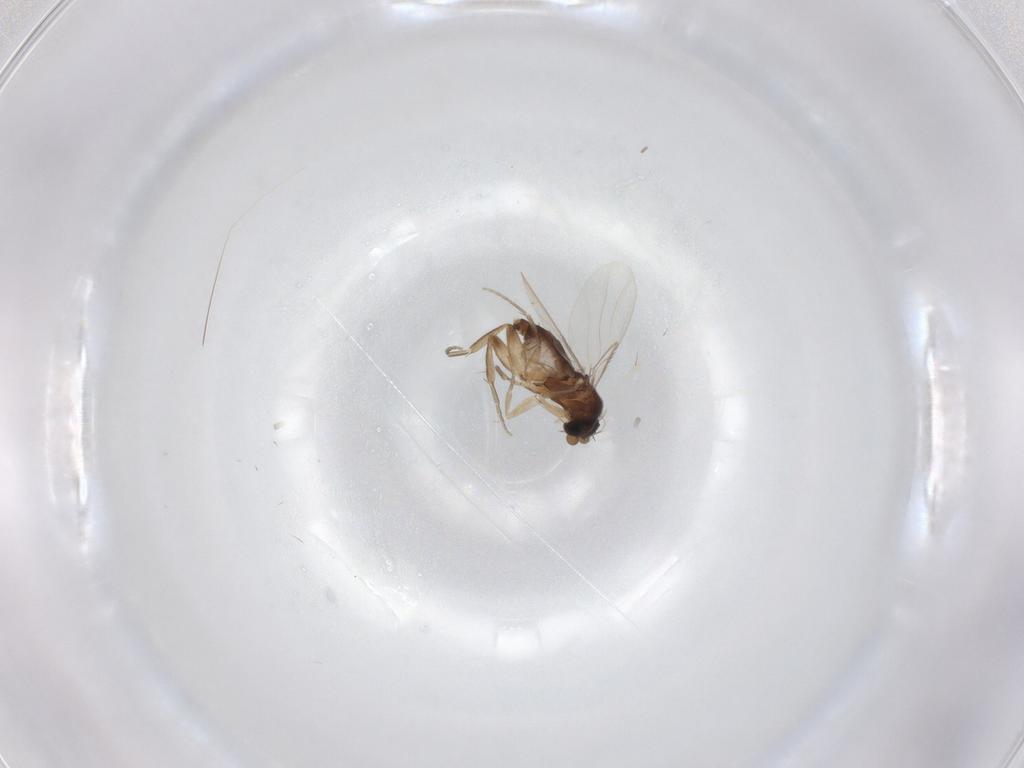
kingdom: Animalia
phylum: Arthropoda
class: Insecta
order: Diptera
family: Phoridae
